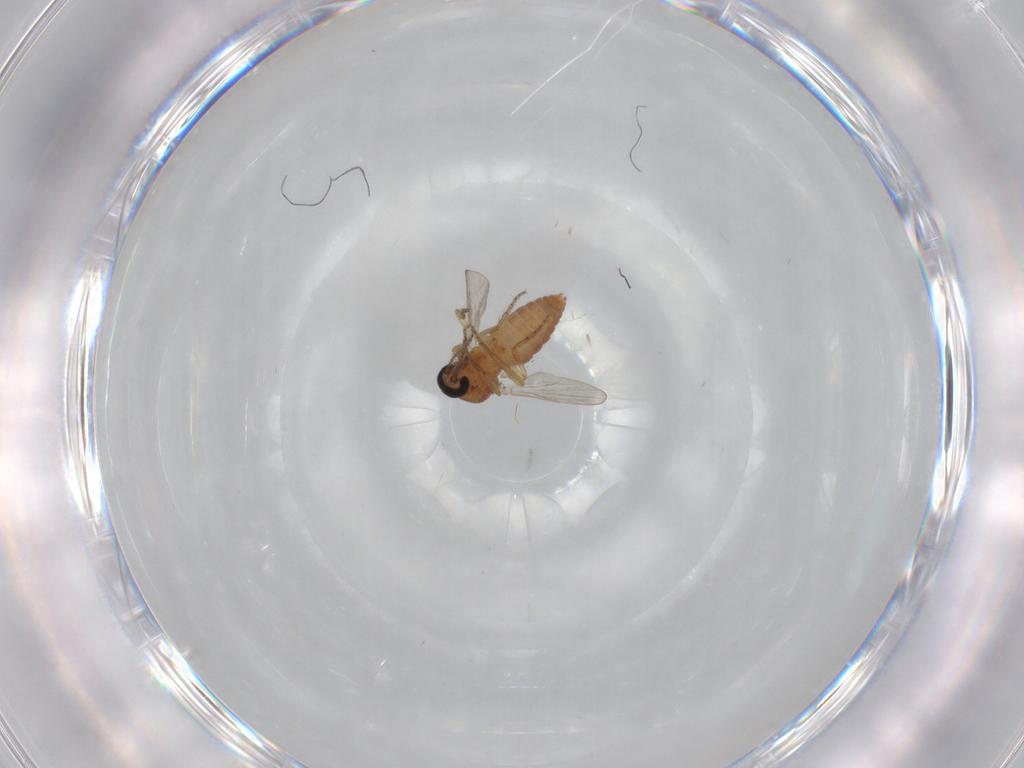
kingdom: Animalia
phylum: Arthropoda
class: Insecta
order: Diptera
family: Ceratopogonidae
